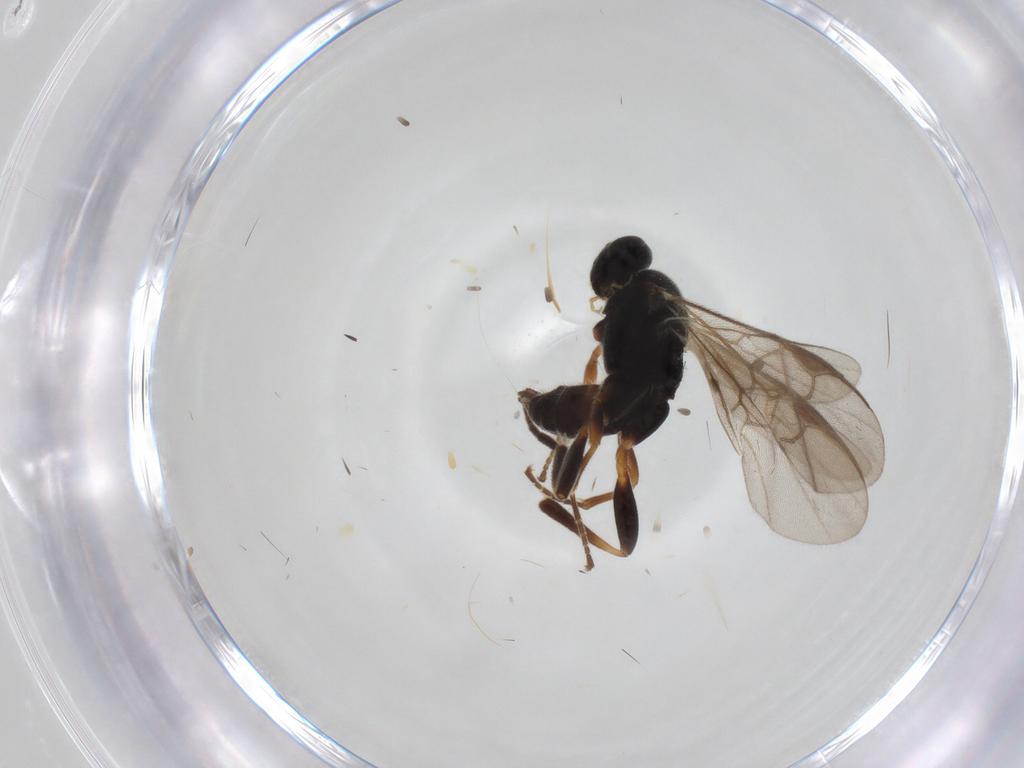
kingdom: Animalia
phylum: Arthropoda
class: Insecta
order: Hymenoptera
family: Braconidae
